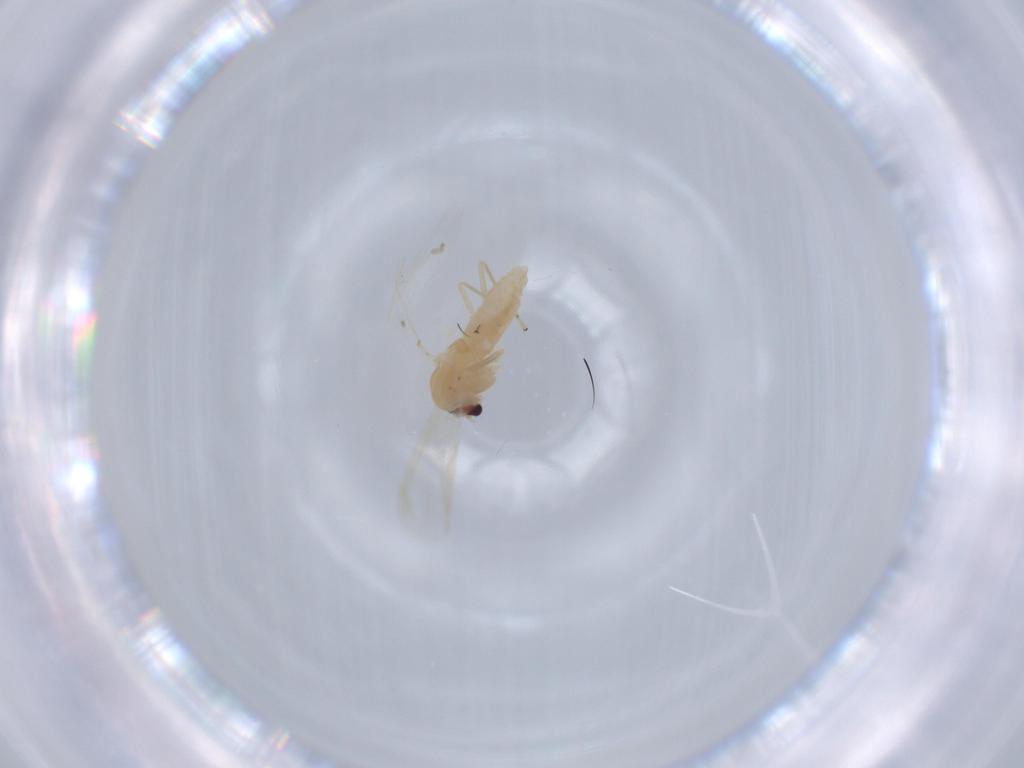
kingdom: Animalia
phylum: Arthropoda
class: Insecta
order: Diptera
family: Chironomidae
